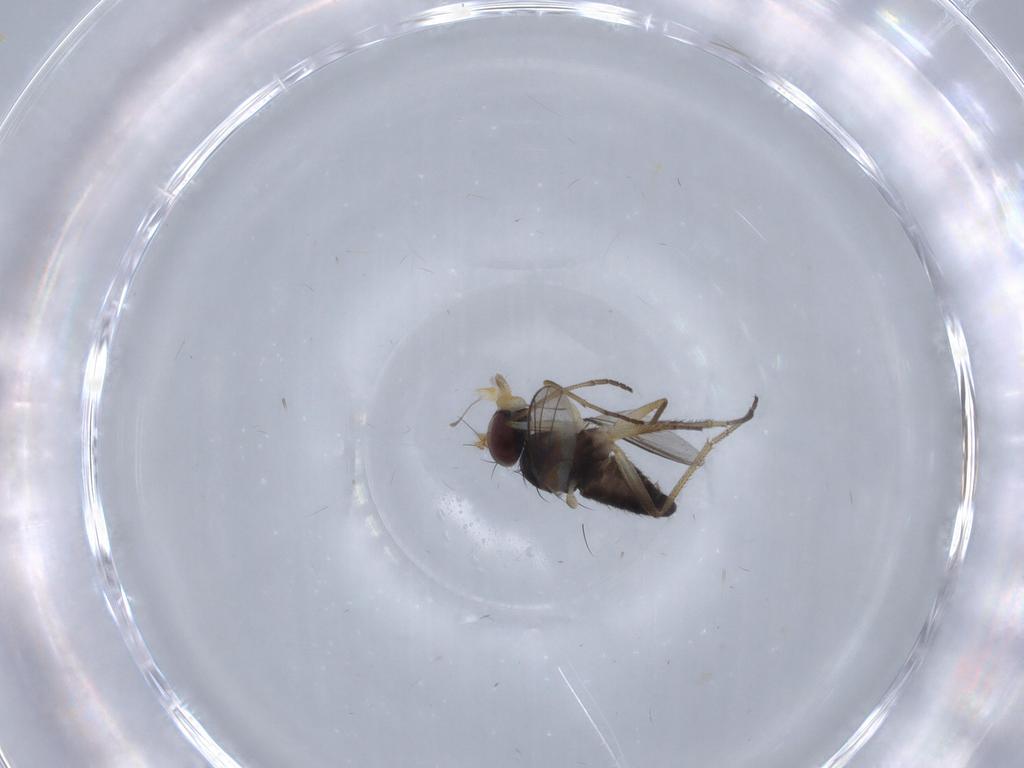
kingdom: Animalia
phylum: Arthropoda
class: Insecta
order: Diptera
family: Dolichopodidae
